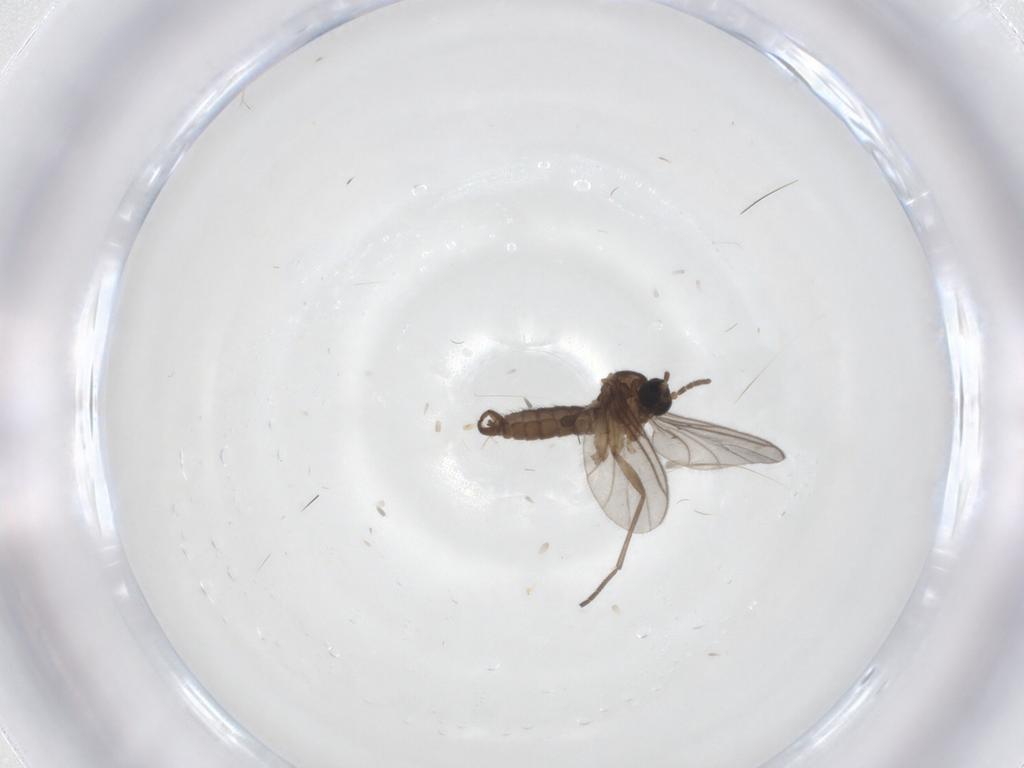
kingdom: Animalia
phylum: Arthropoda
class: Insecta
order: Diptera
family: Sciaridae
